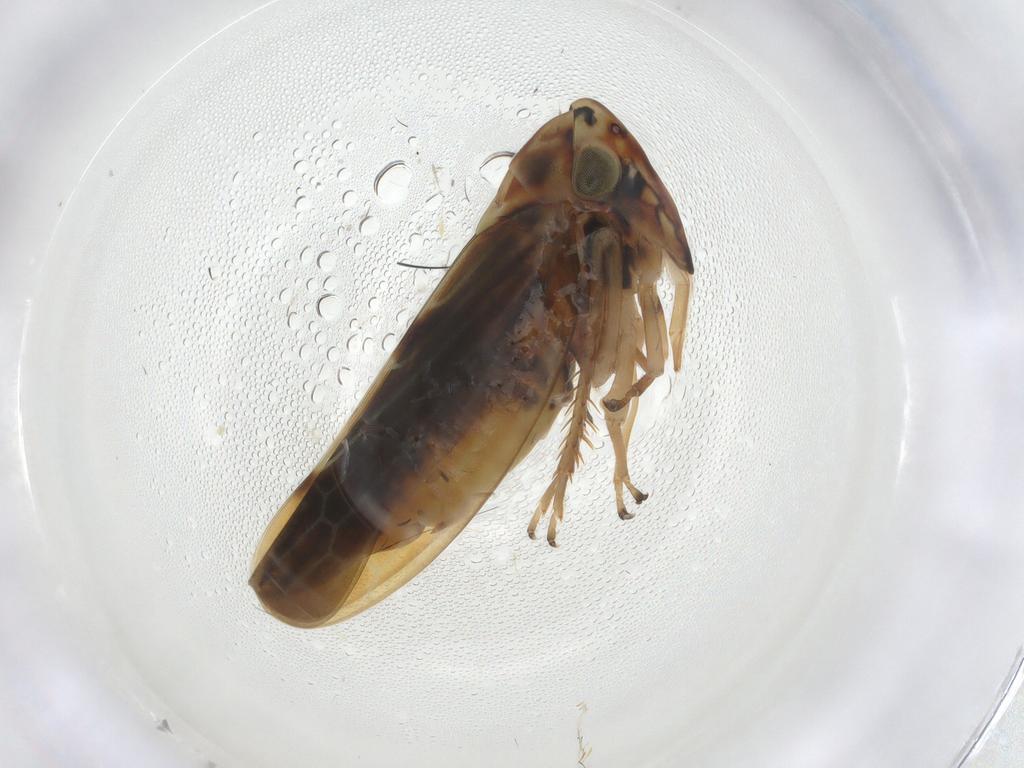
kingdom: Animalia
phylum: Arthropoda
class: Insecta
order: Hemiptera
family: Cicadellidae
